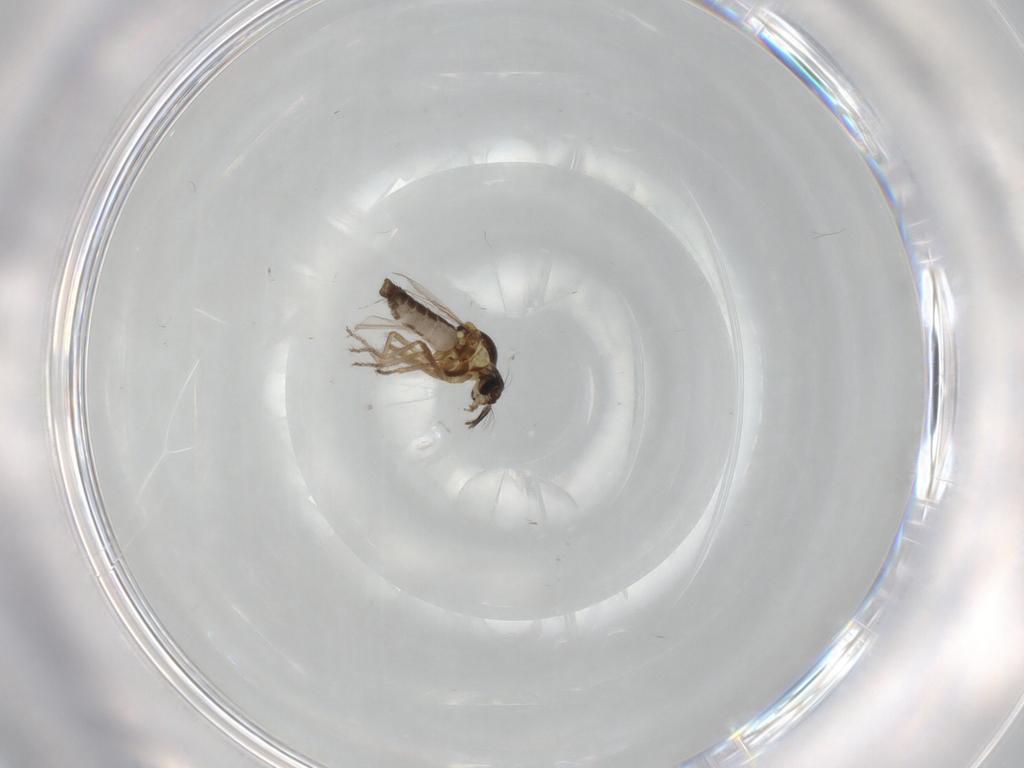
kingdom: Animalia
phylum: Arthropoda
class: Insecta
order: Diptera
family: Ceratopogonidae
